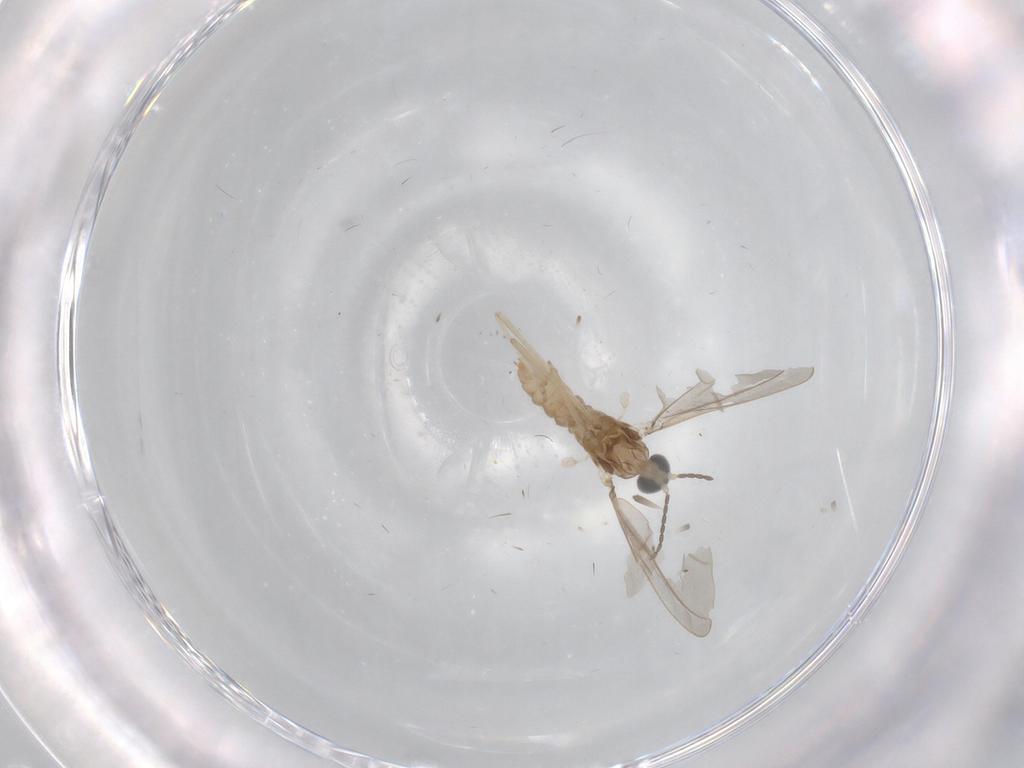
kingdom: Animalia
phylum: Arthropoda
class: Insecta
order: Diptera
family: Cecidomyiidae
